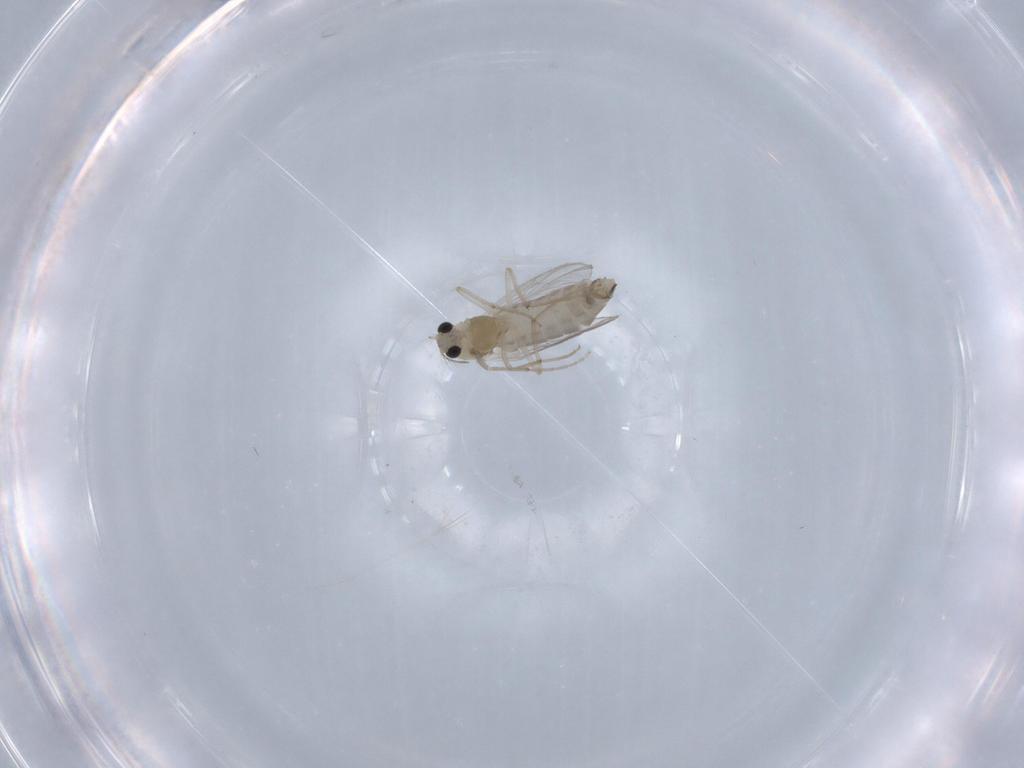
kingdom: Animalia
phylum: Arthropoda
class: Insecta
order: Diptera
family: Chironomidae
